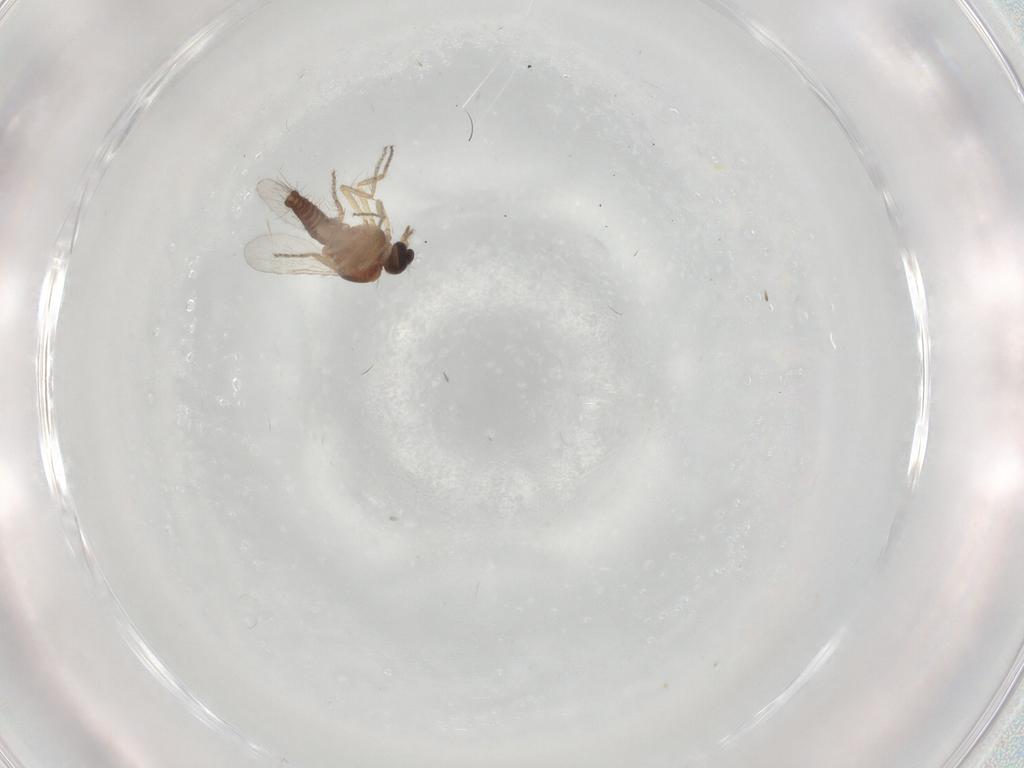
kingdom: Animalia
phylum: Arthropoda
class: Insecta
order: Diptera
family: Ceratopogonidae
